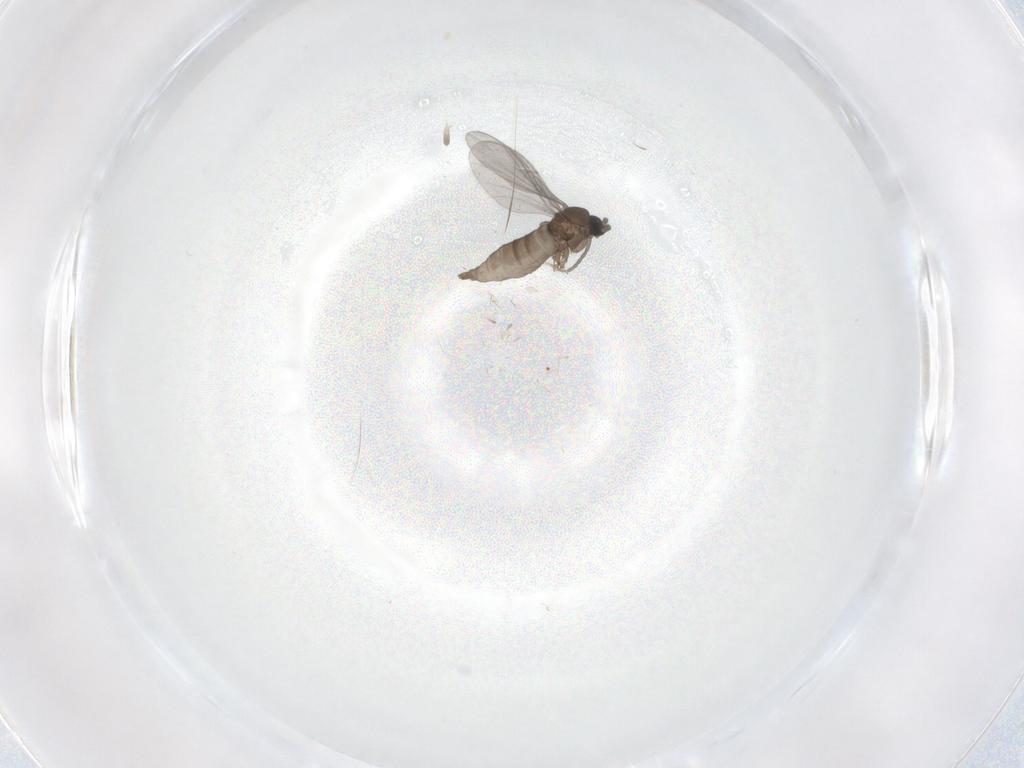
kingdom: Animalia
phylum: Arthropoda
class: Insecta
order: Diptera
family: Sciaridae
